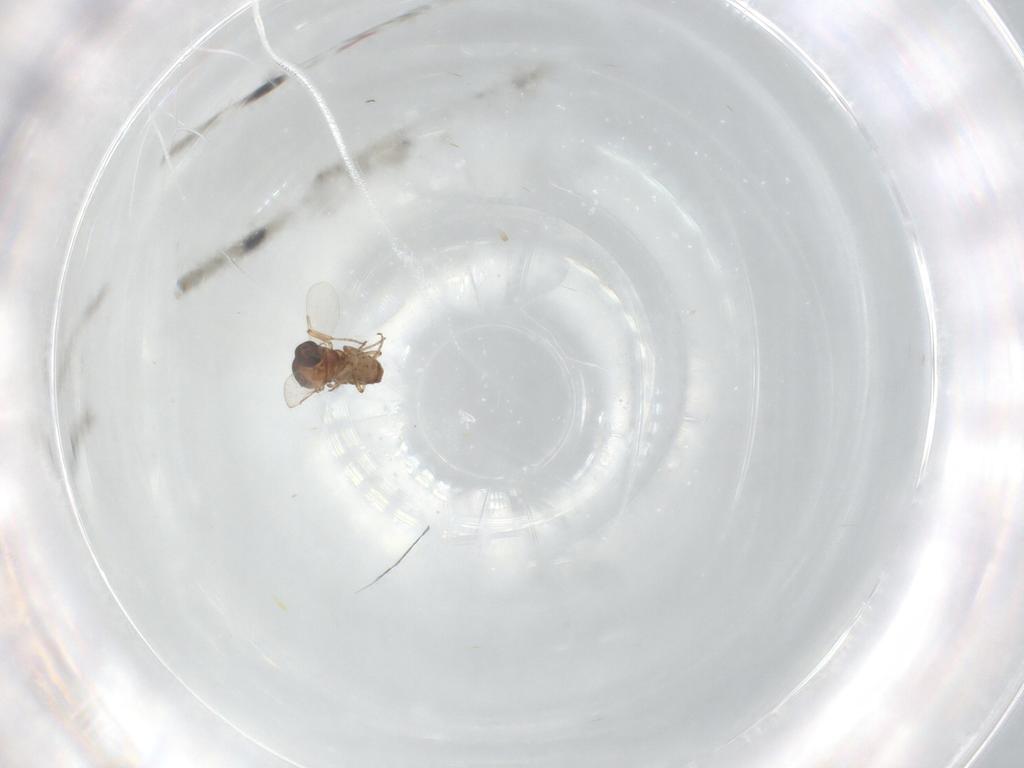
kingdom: Animalia
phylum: Arthropoda
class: Insecta
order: Diptera
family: Ceratopogonidae
